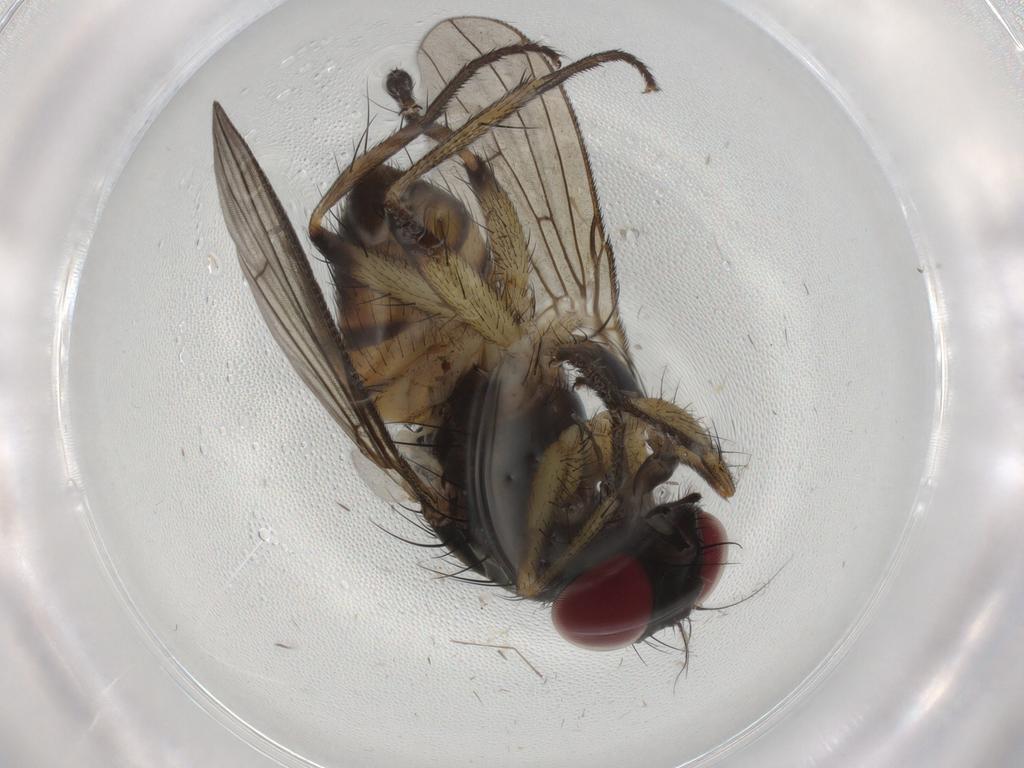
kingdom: Animalia
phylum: Arthropoda
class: Insecta
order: Diptera
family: Muscidae
